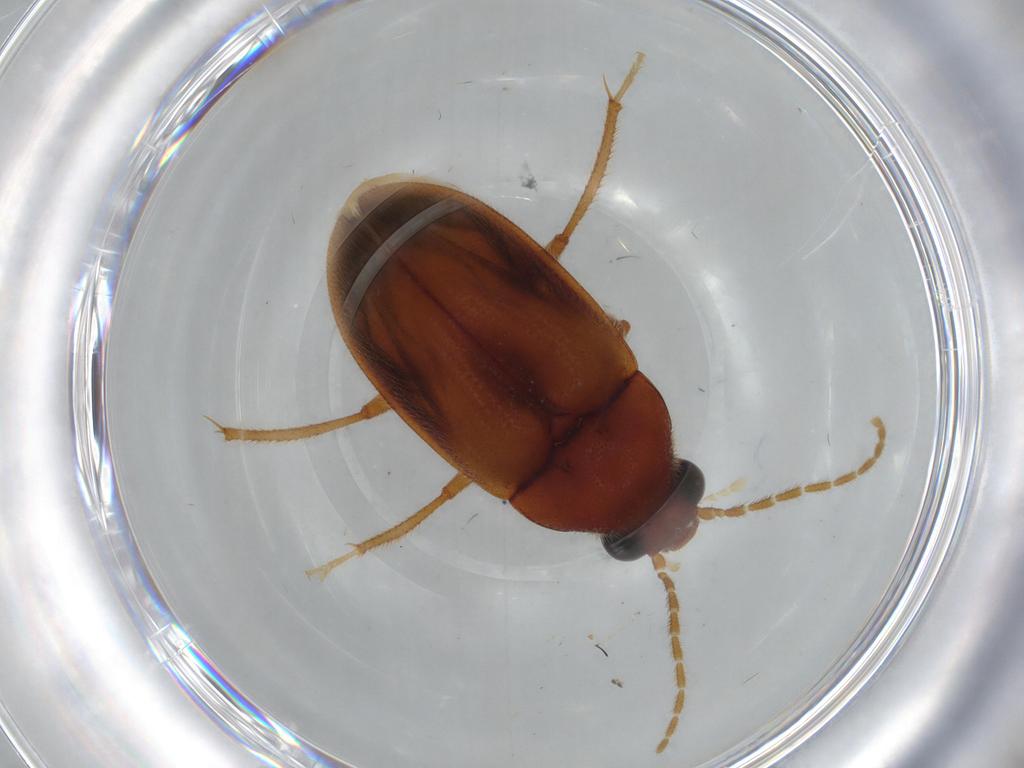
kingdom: Animalia
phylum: Arthropoda
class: Insecta
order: Coleoptera
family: Ptilodactylidae
